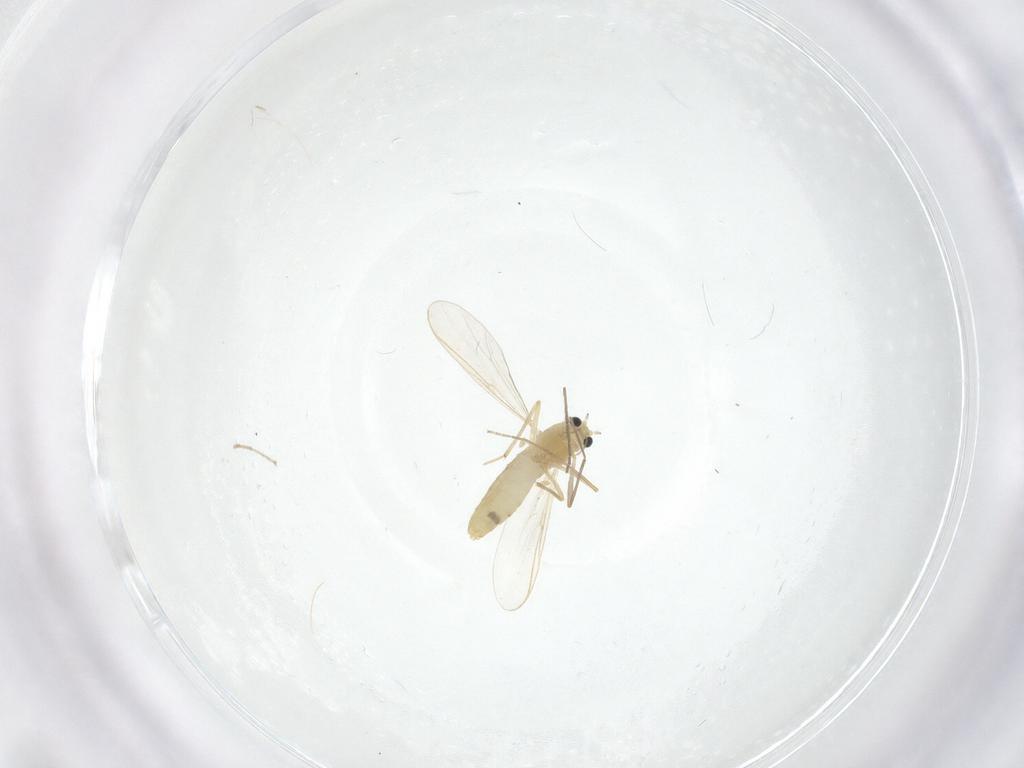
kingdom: Animalia
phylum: Arthropoda
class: Insecta
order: Diptera
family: Chironomidae
